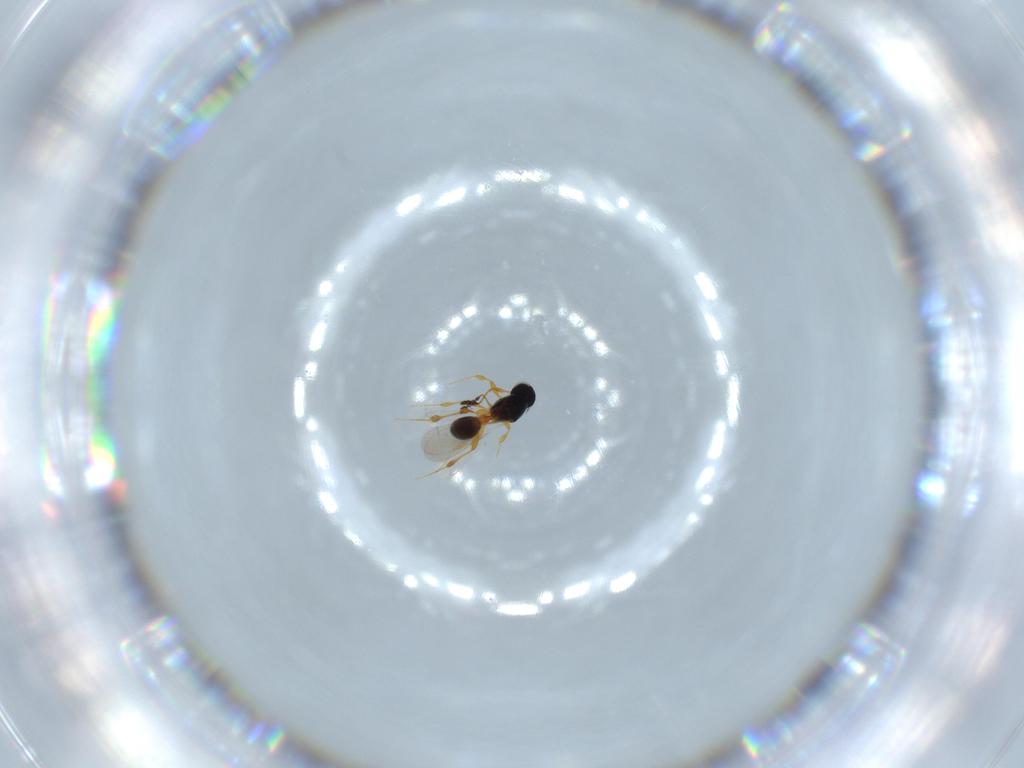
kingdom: Animalia
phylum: Arthropoda
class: Insecta
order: Hymenoptera
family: Platygastridae
